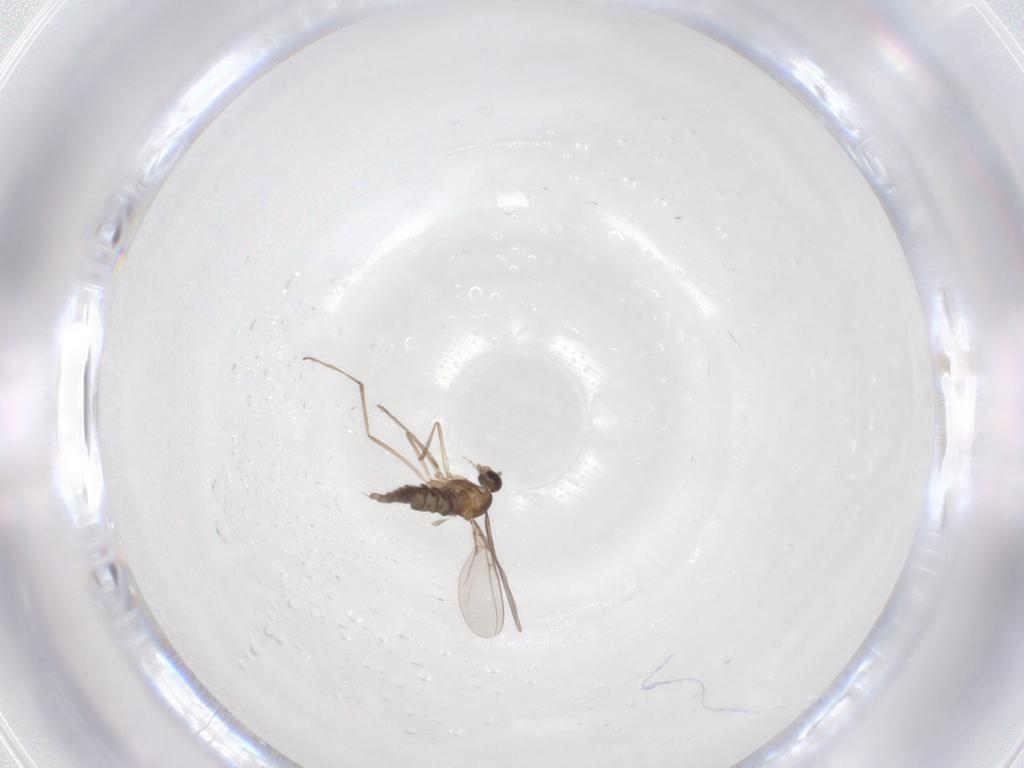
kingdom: Animalia
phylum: Arthropoda
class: Insecta
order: Diptera
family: Cecidomyiidae
